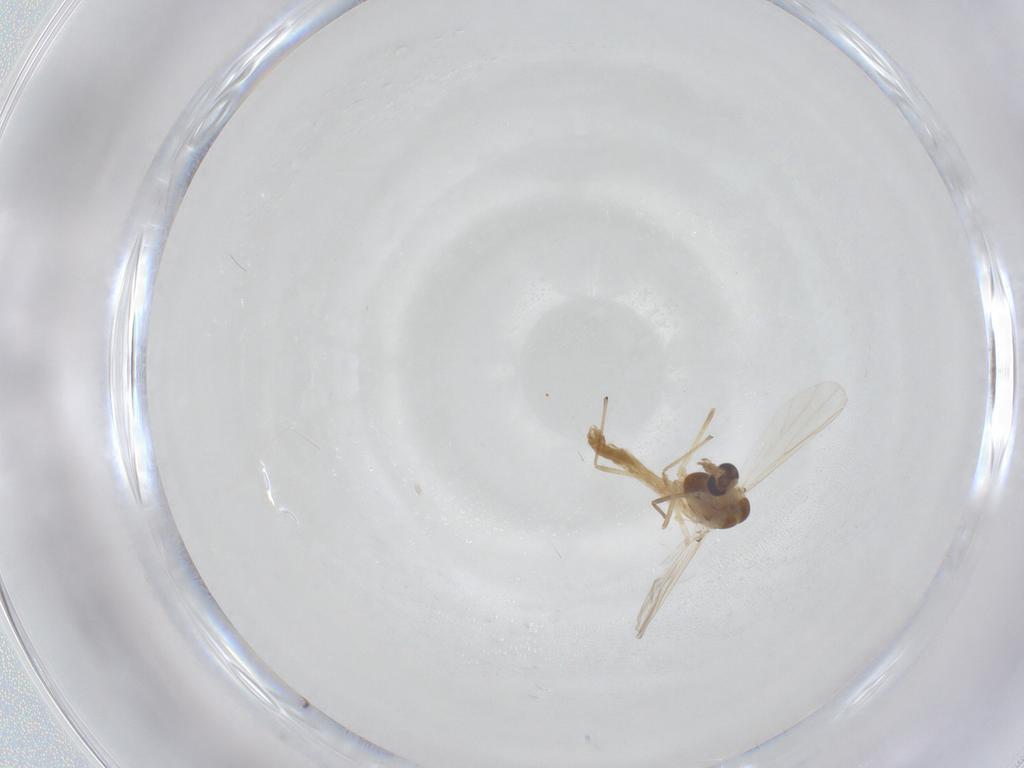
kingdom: Animalia
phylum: Arthropoda
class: Insecta
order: Diptera
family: Chironomidae
